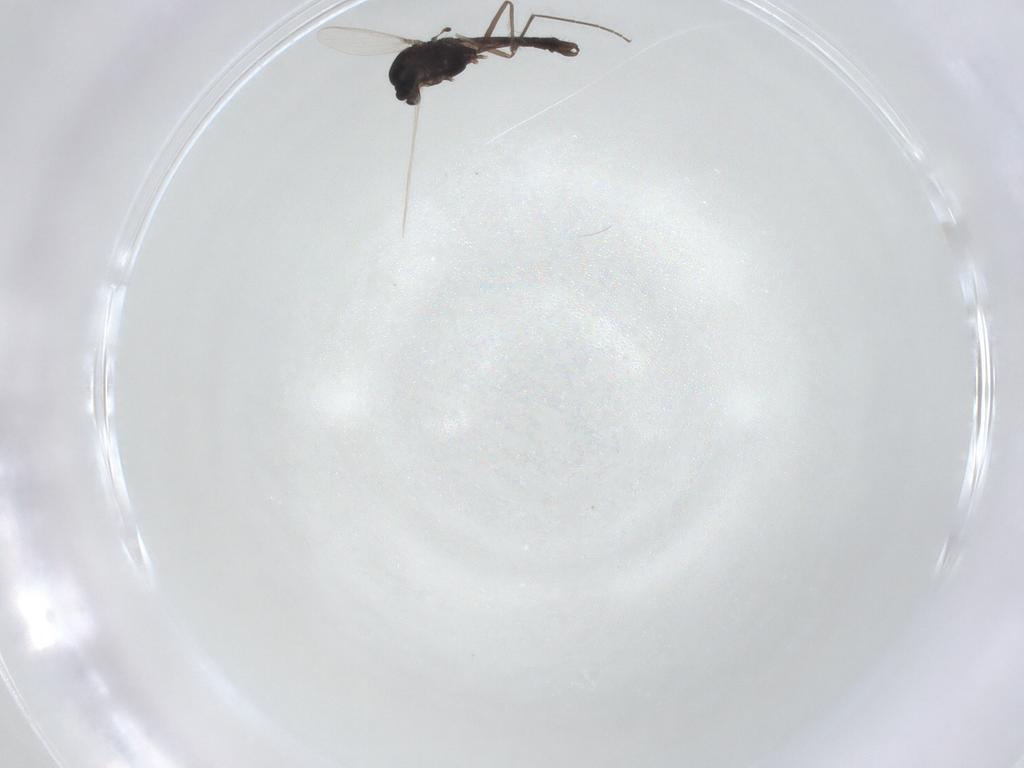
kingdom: Animalia
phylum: Arthropoda
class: Insecta
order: Diptera
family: Chironomidae
